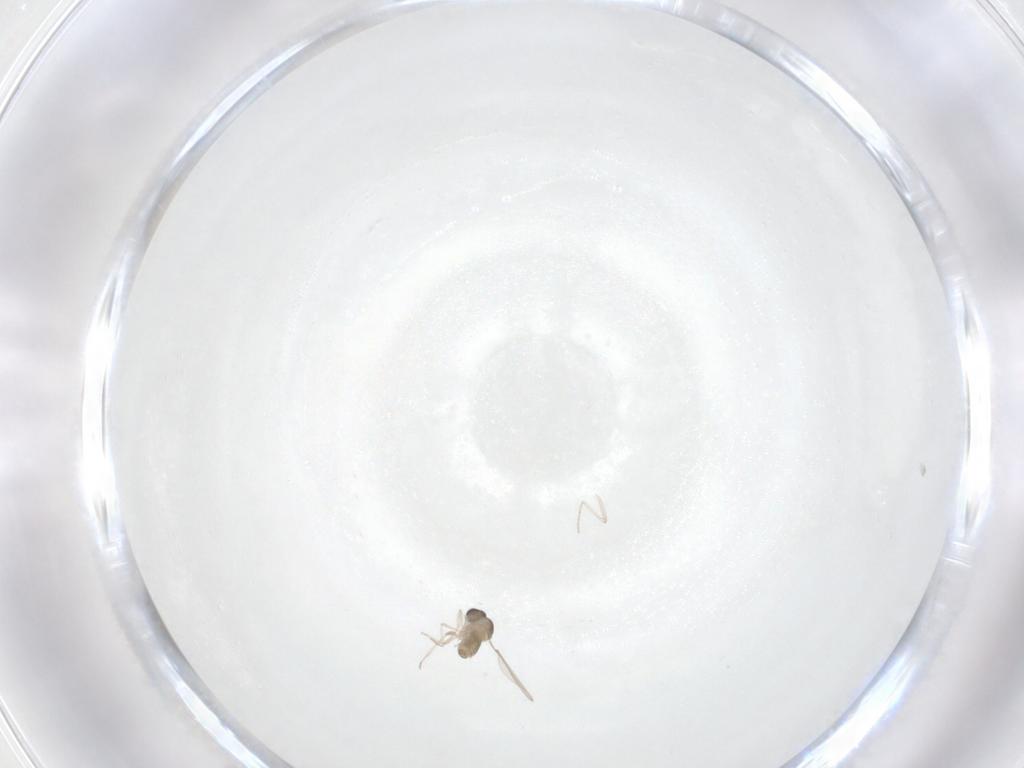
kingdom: Animalia
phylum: Arthropoda
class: Insecta
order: Diptera
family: Cecidomyiidae
